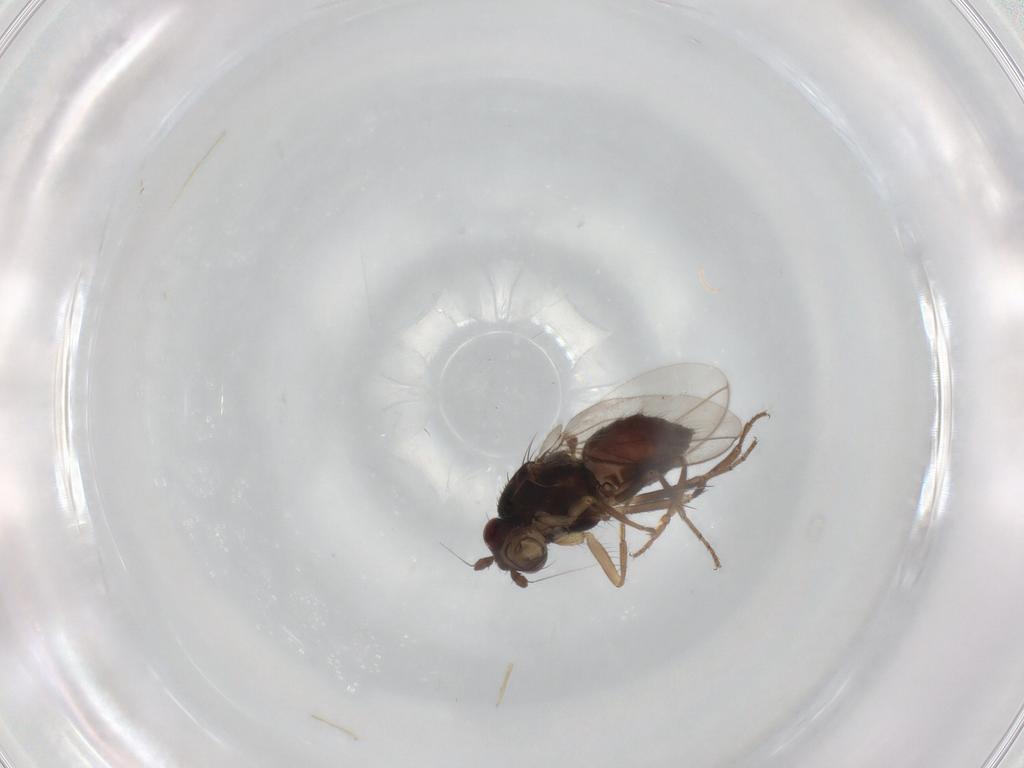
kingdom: Animalia
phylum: Arthropoda
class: Insecta
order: Diptera
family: Sphaeroceridae
